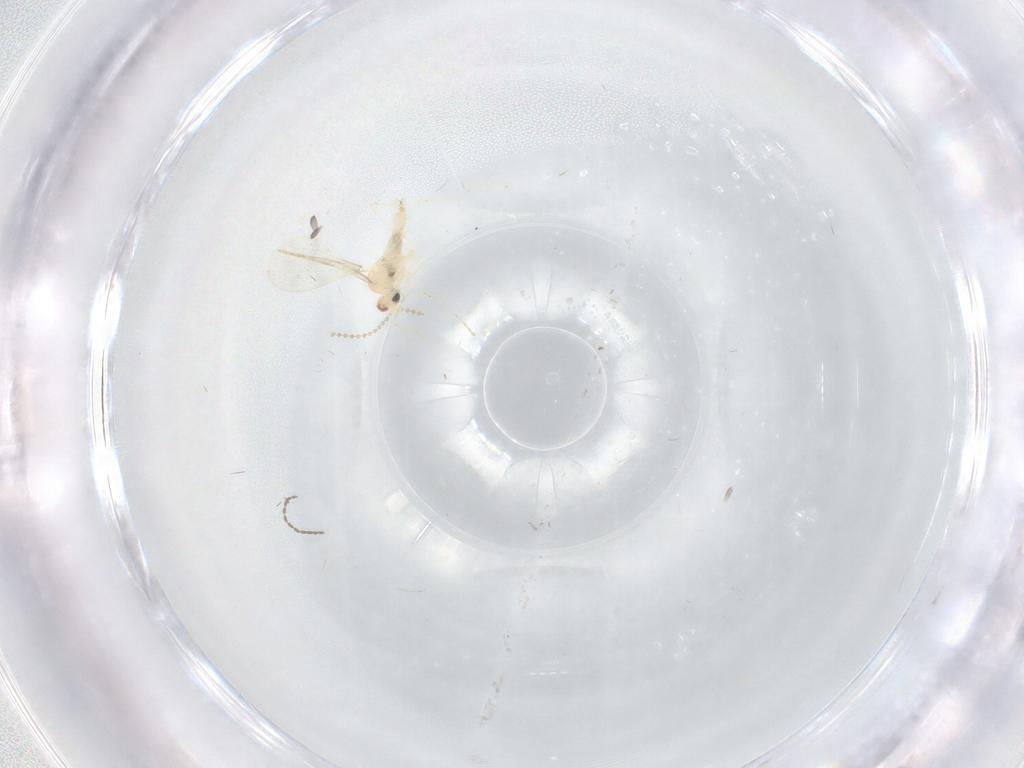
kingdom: Animalia
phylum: Arthropoda
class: Insecta
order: Diptera
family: Cecidomyiidae
